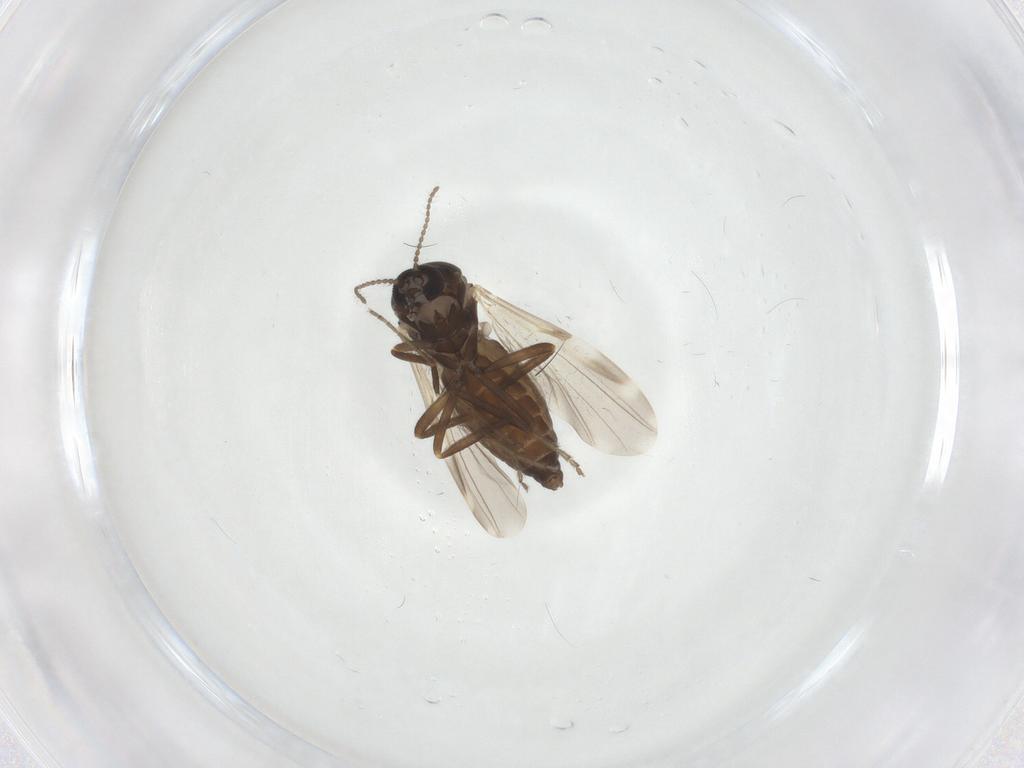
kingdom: Animalia
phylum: Arthropoda
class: Insecta
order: Diptera
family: Ceratopogonidae
